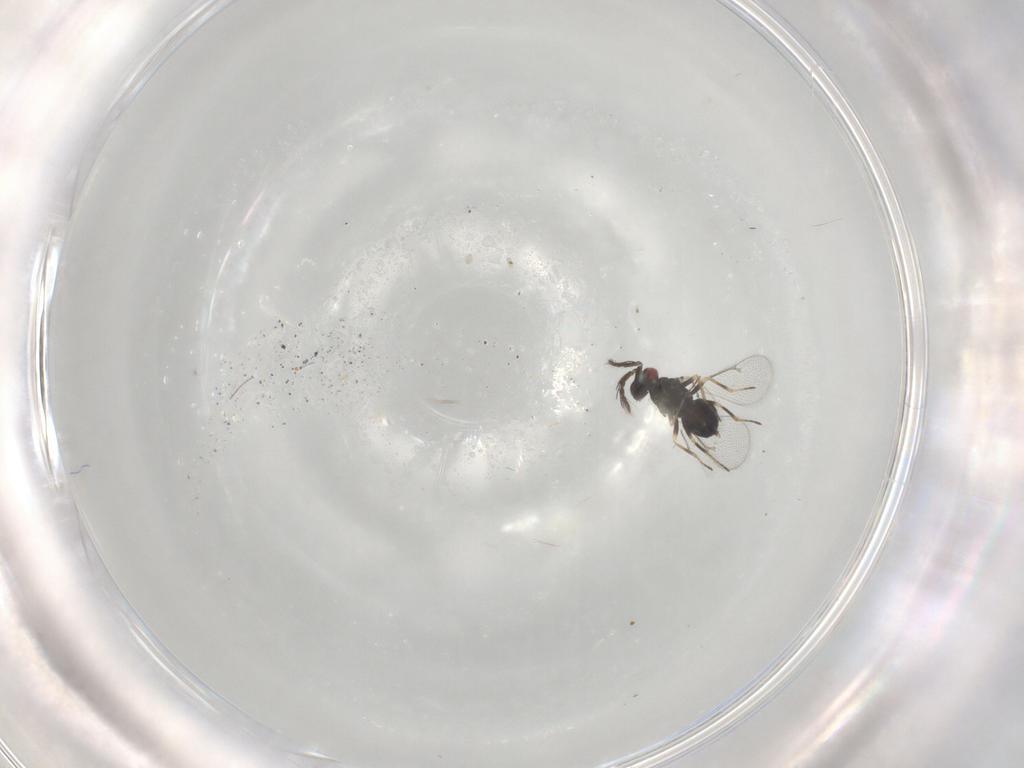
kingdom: Animalia
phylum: Arthropoda
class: Insecta
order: Hymenoptera
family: Eulophidae
